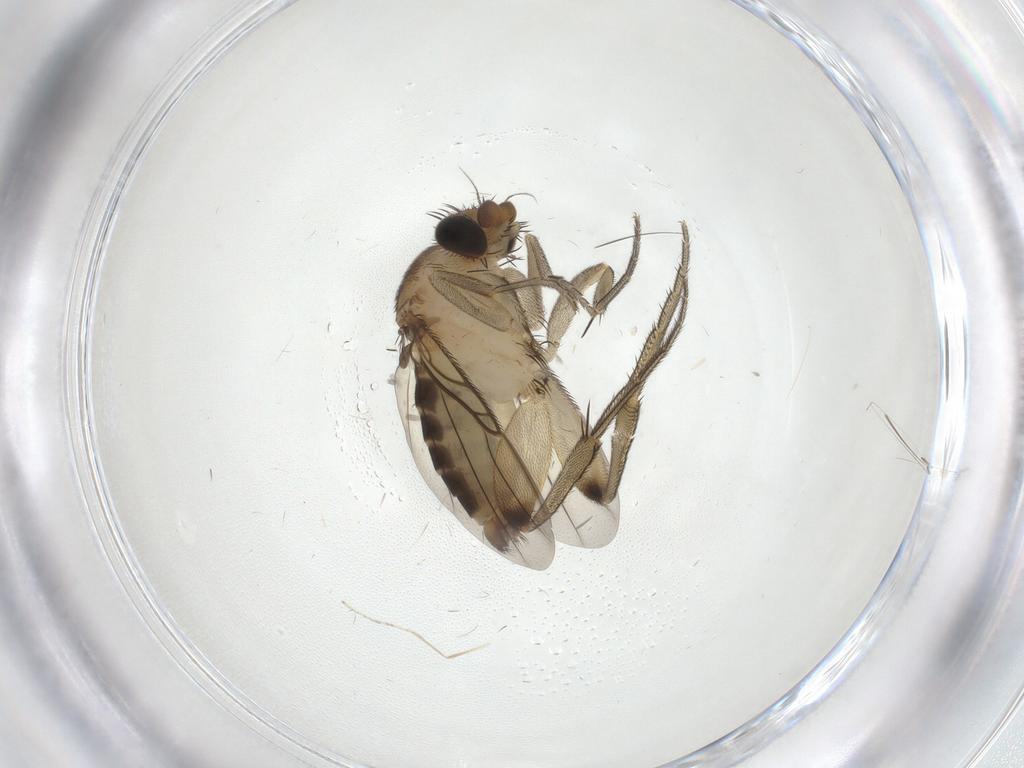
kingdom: Animalia
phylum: Arthropoda
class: Insecta
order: Diptera
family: Phoridae
